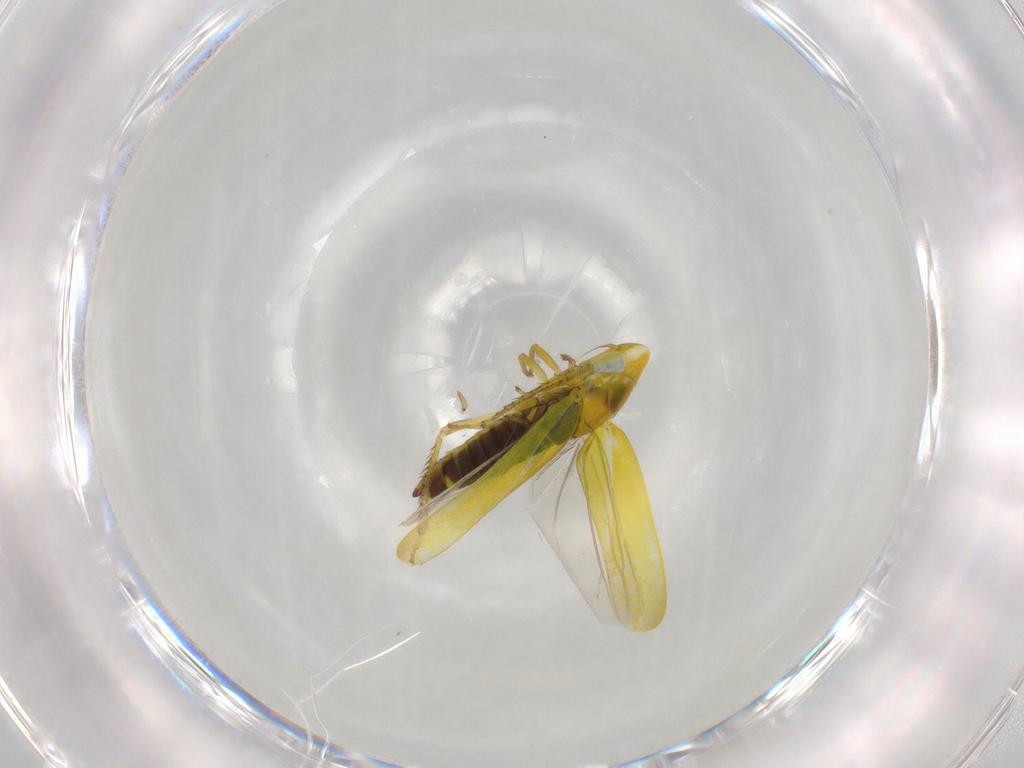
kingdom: Animalia
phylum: Arthropoda
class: Insecta
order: Hemiptera
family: Cicadellidae
